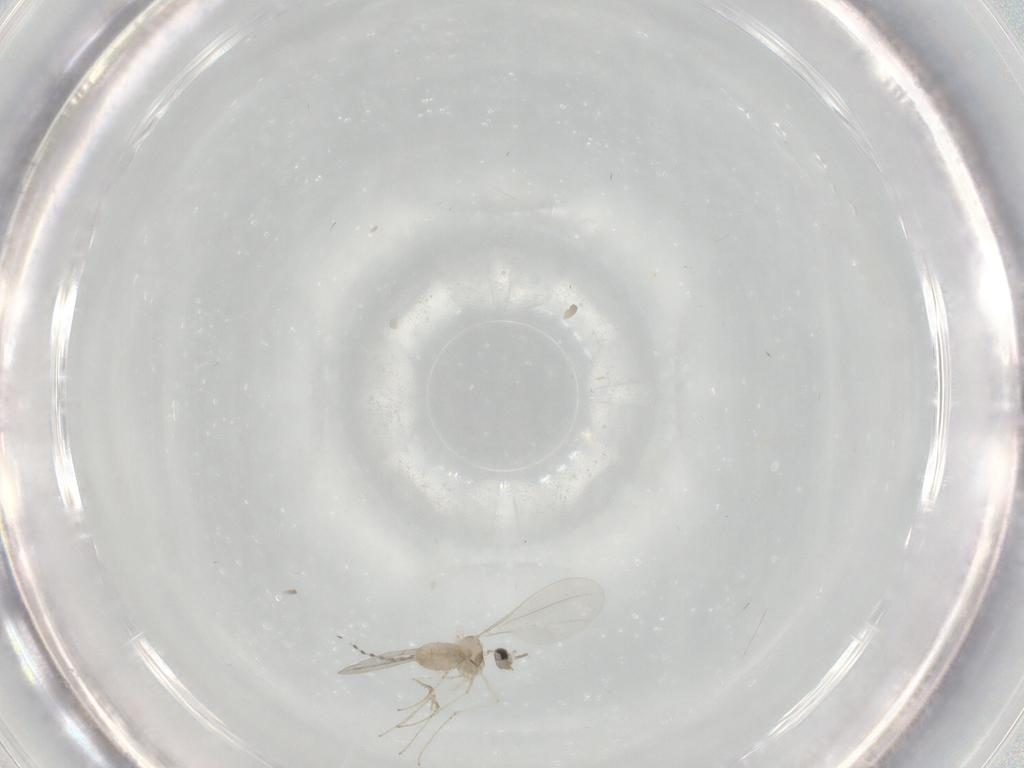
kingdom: Animalia
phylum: Arthropoda
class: Insecta
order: Diptera
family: Cecidomyiidae
